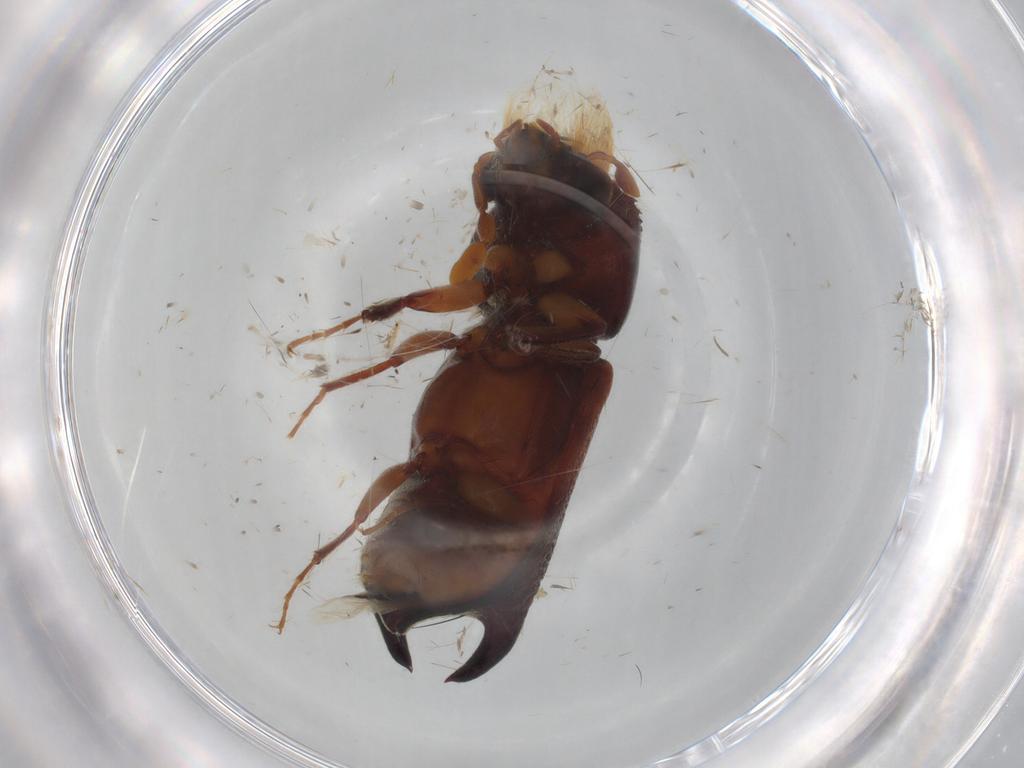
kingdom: Animalia
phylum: Arthropoda
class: Insecta
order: Coleoptera
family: Bostrichidae
